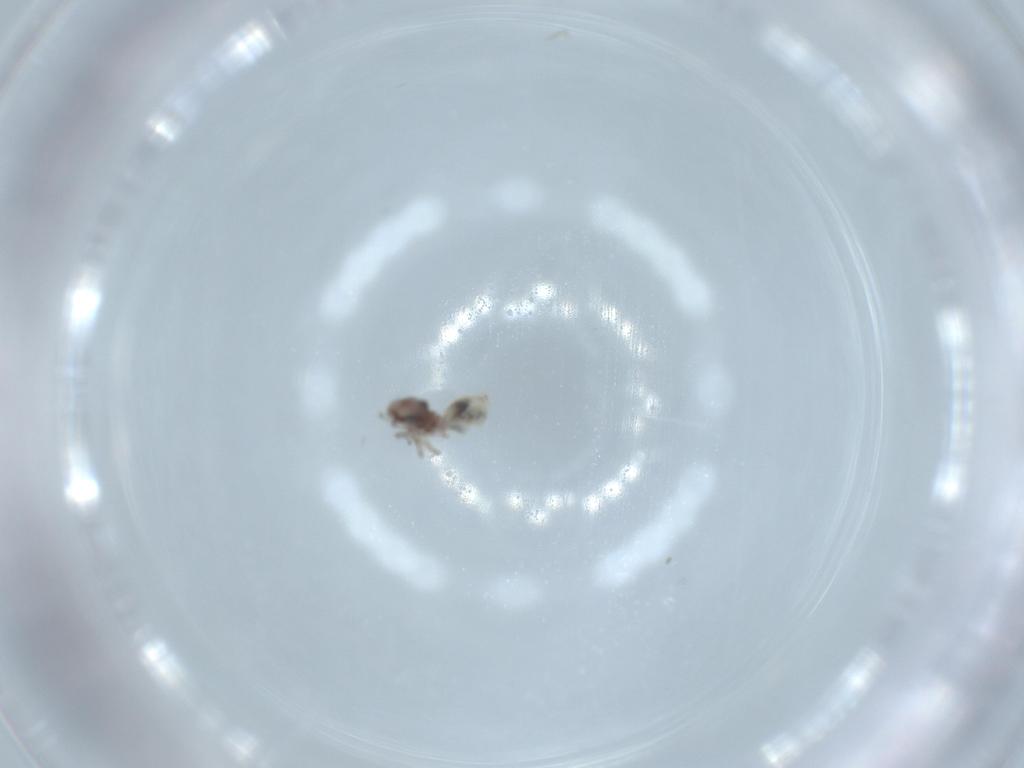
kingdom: Animalia
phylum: Arthropoda
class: Insecta
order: Psocodea
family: Lepidopsocidae
